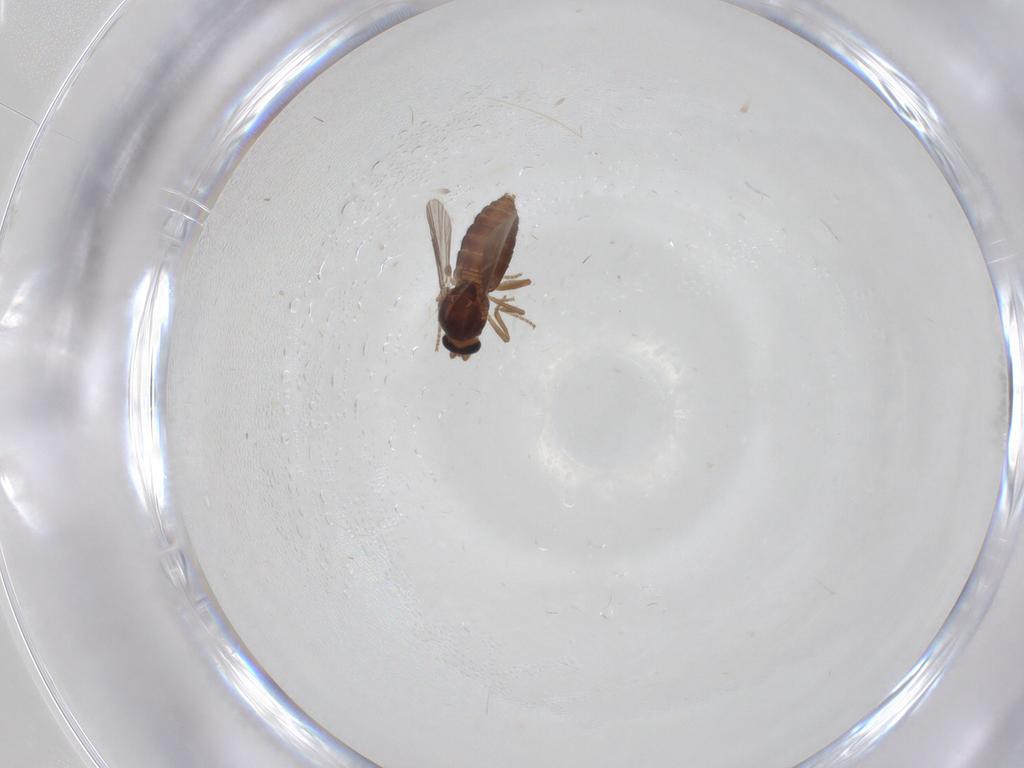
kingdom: Animalia
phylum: Arthropoda
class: Insecta
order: Diptera
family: Ceratopogonidae
